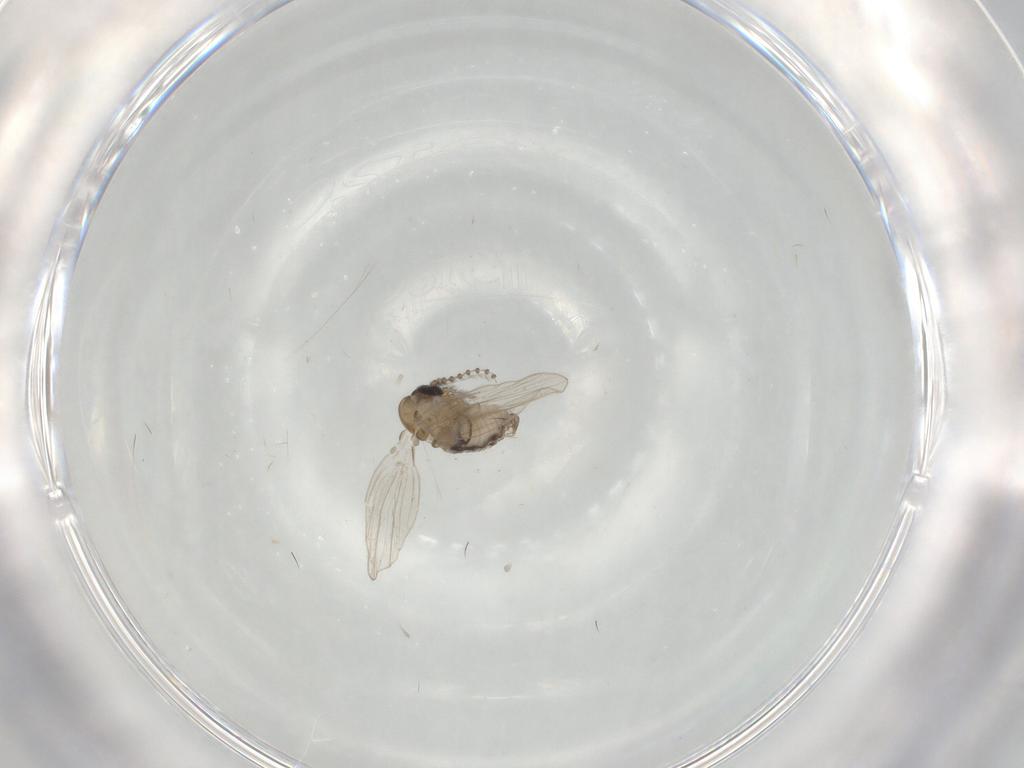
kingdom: Animalia
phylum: Arthropoda
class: Insecta
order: Diptera
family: Psychodidae
